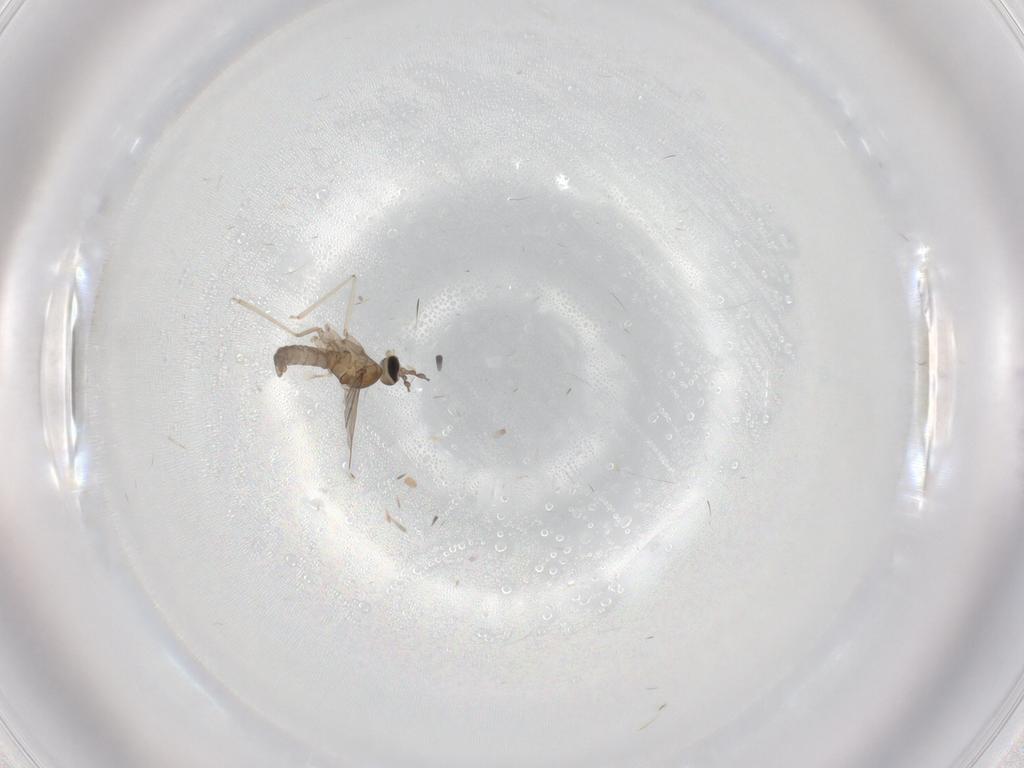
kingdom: Animalia
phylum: Arthropoda
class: Insecta
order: Diptera
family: Cecidomyiidae
